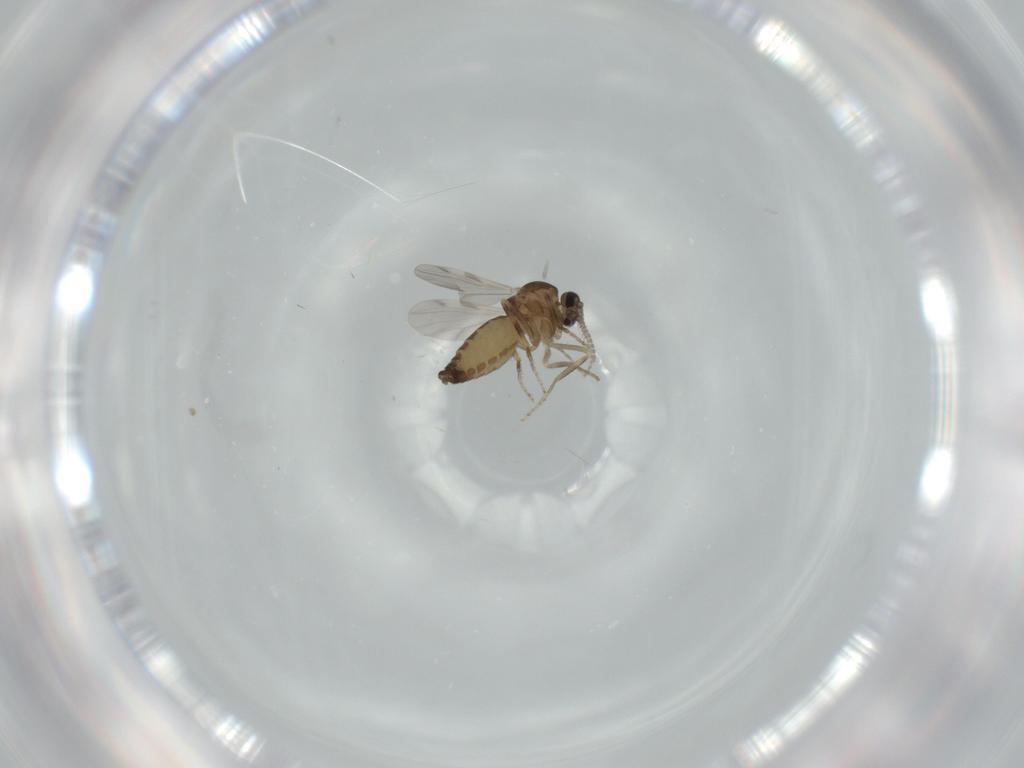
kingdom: Animalia
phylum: Arthropoda
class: Insecta
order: Diptera
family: Ceratopogonidae
